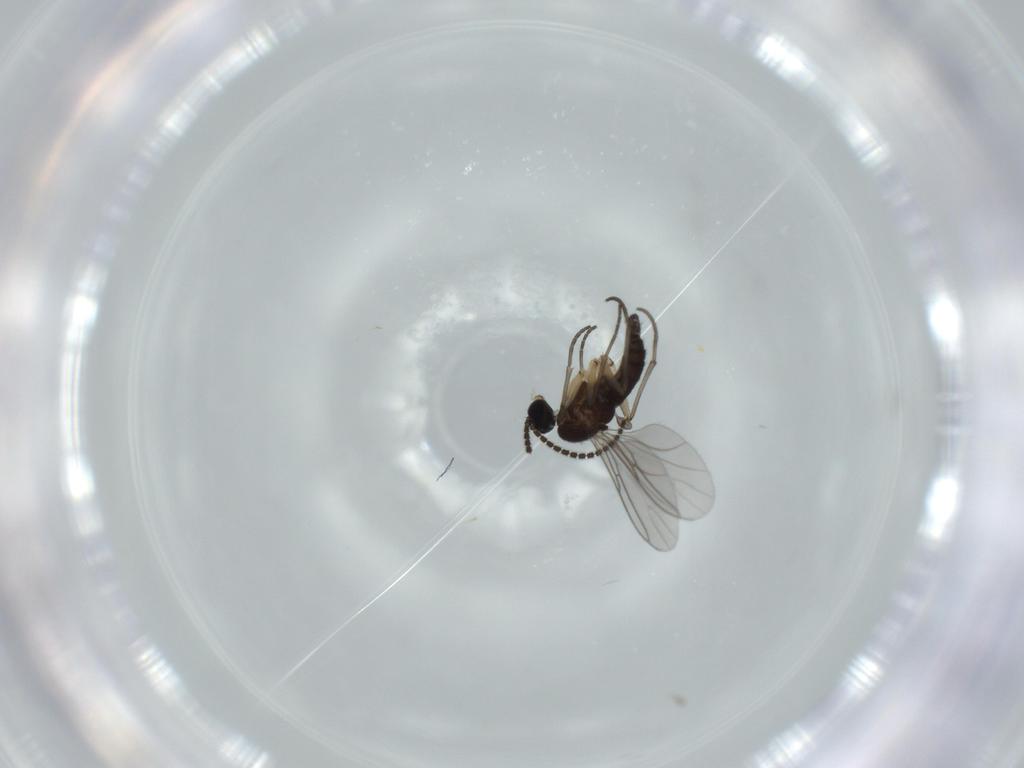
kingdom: Animalia
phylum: Arthropoda
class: Insecta
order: Diptera
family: Sciaridae
